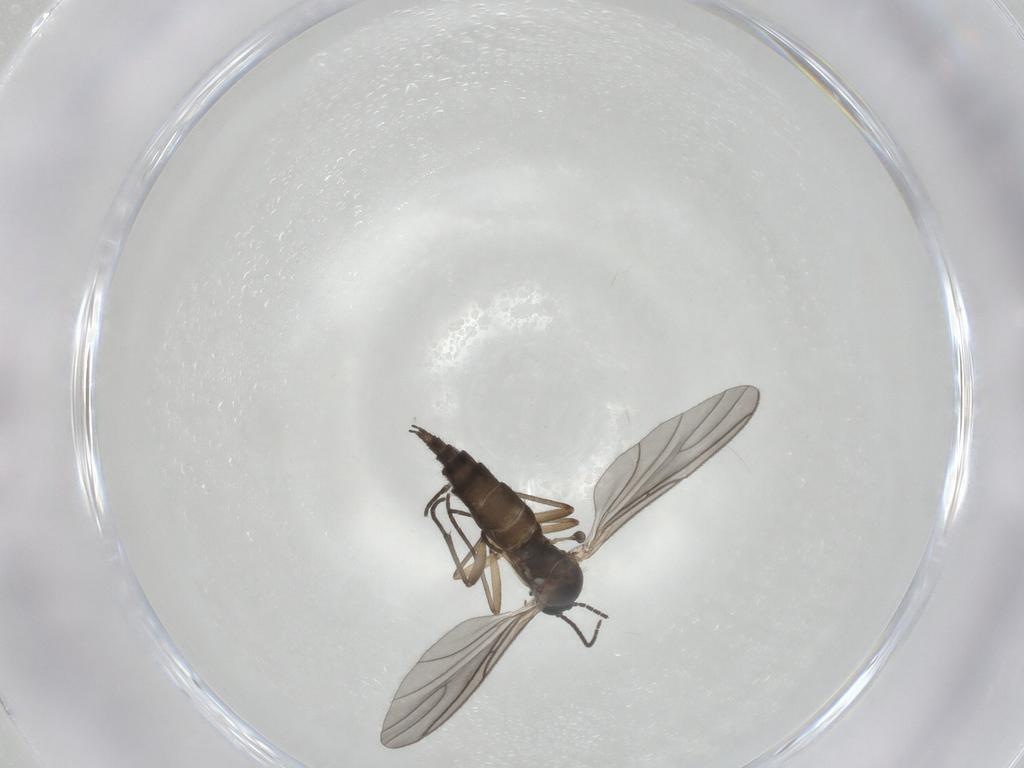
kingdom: Animalia
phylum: Arthropoda
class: Insecta
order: Diptera
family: Sciaridae
